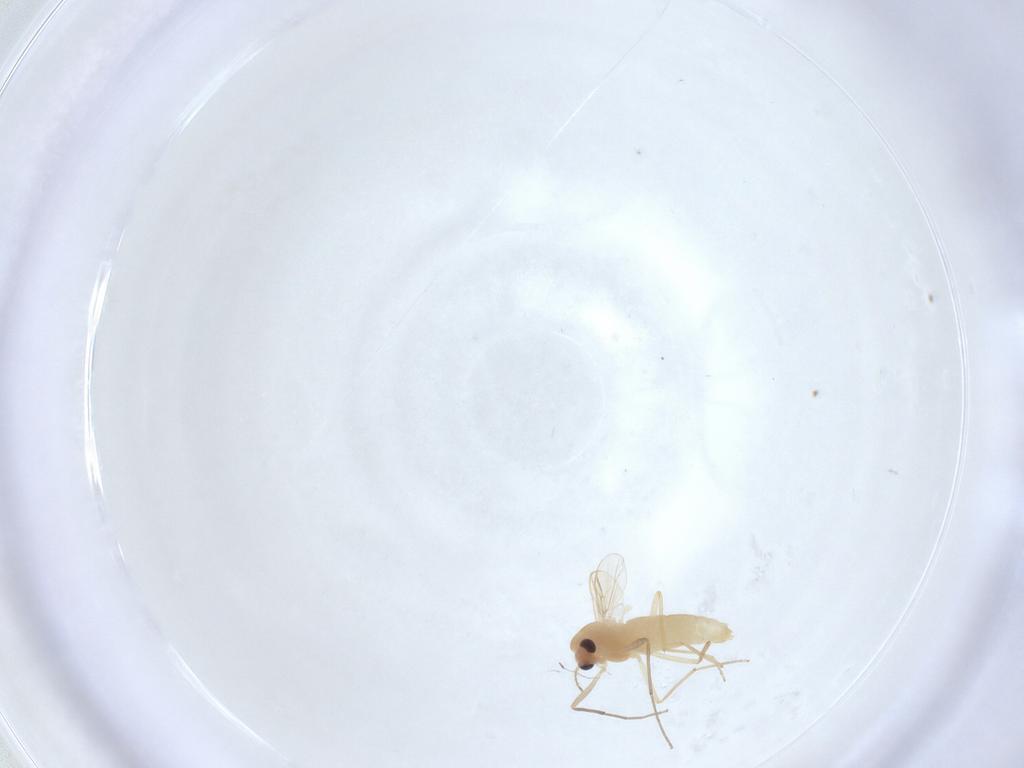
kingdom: Animalia
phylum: Arthropoda
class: Insecta
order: Diptera
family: Chironomidae
